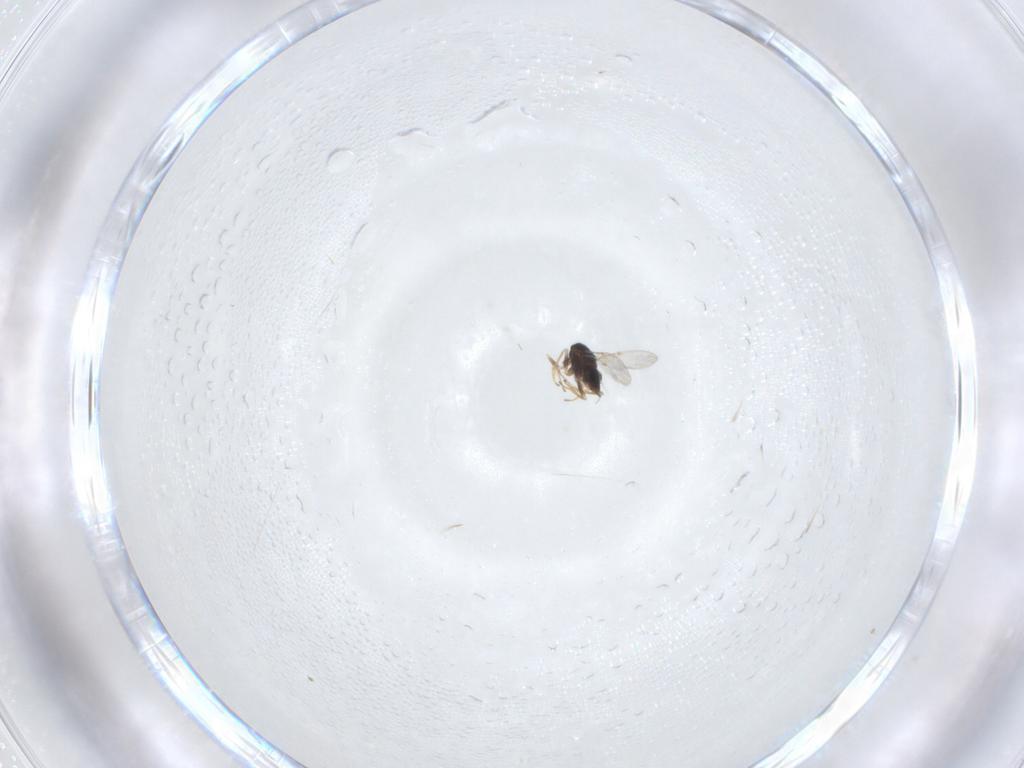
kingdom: Animalia
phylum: Arthropoda
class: Insecta
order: Hymenoptera
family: Encyrtidae
